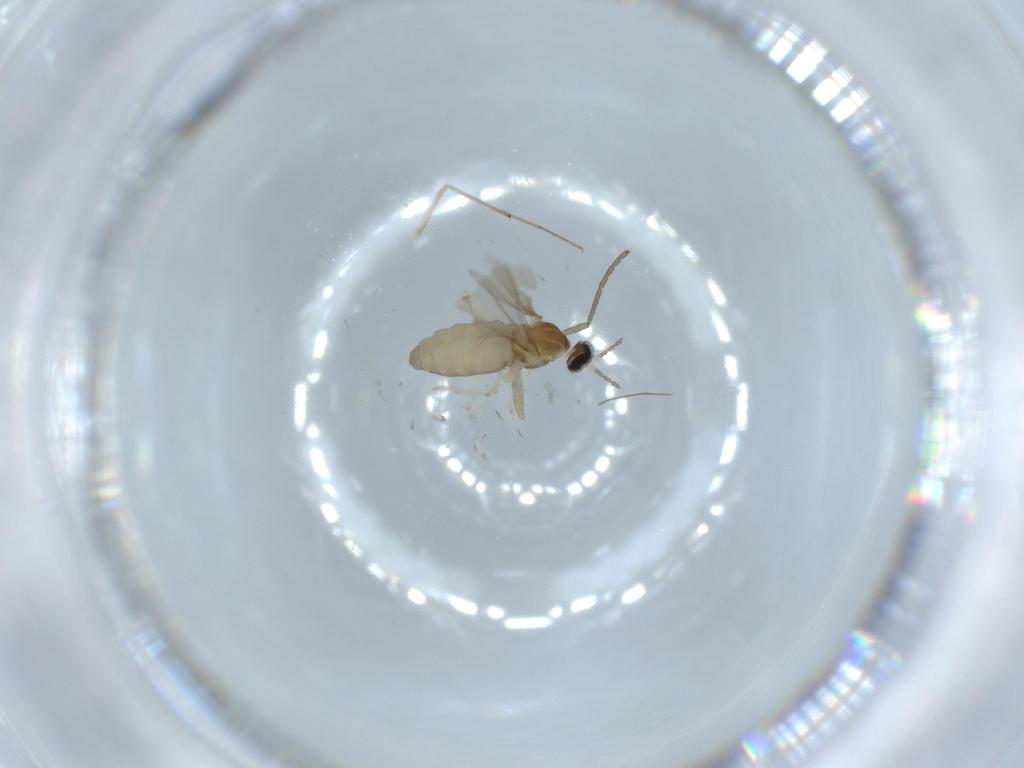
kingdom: Animalia
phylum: Arthropoda
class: Insecta
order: Diptera
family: Cecidomyiidae
